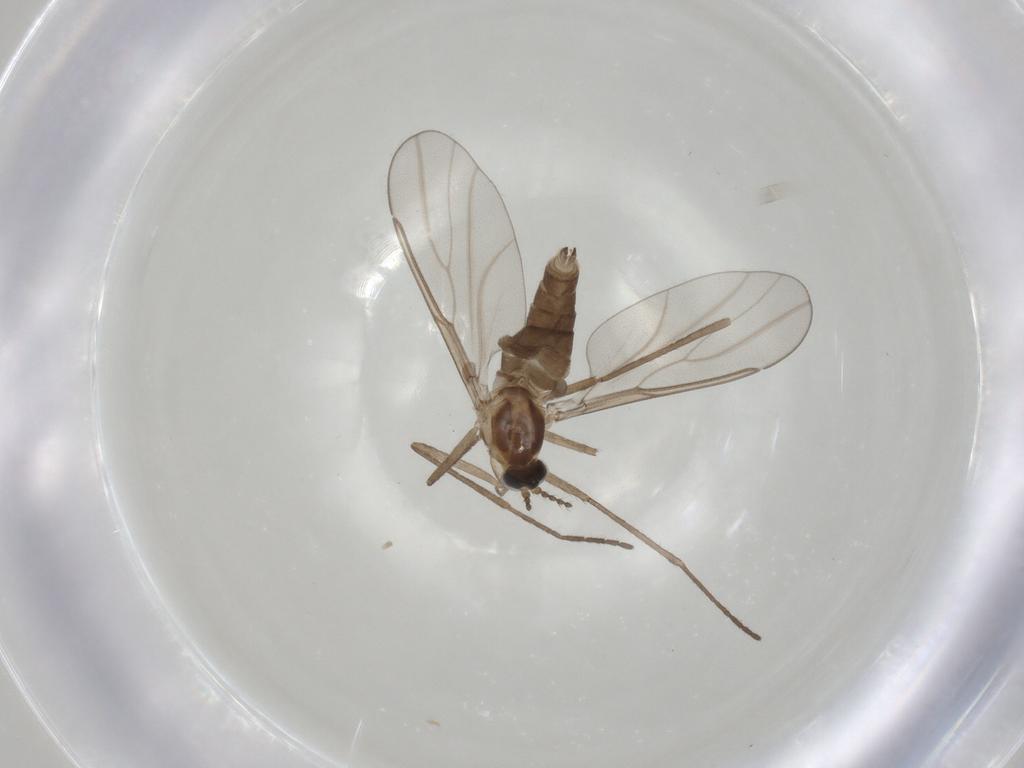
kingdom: Animalia
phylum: Arthropoda
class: Insecta
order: Diptera
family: Cecidomyiidae
